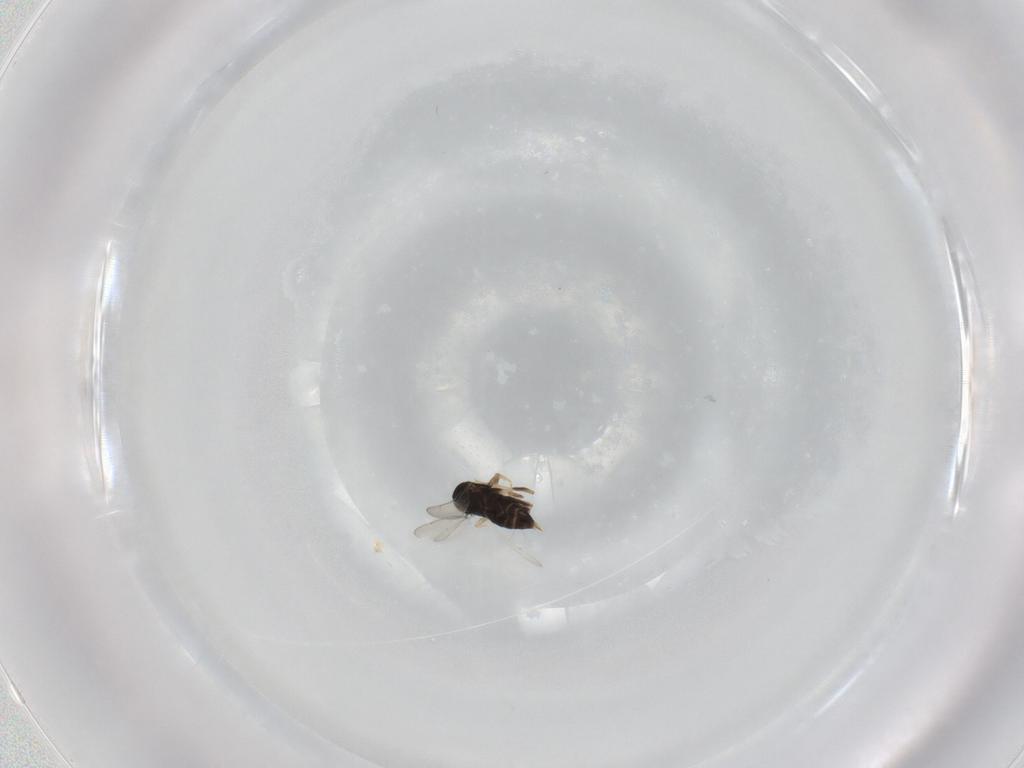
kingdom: Animalia
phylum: Arthropoda
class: Insecta
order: Hymenoptera
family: Aphelinidae
